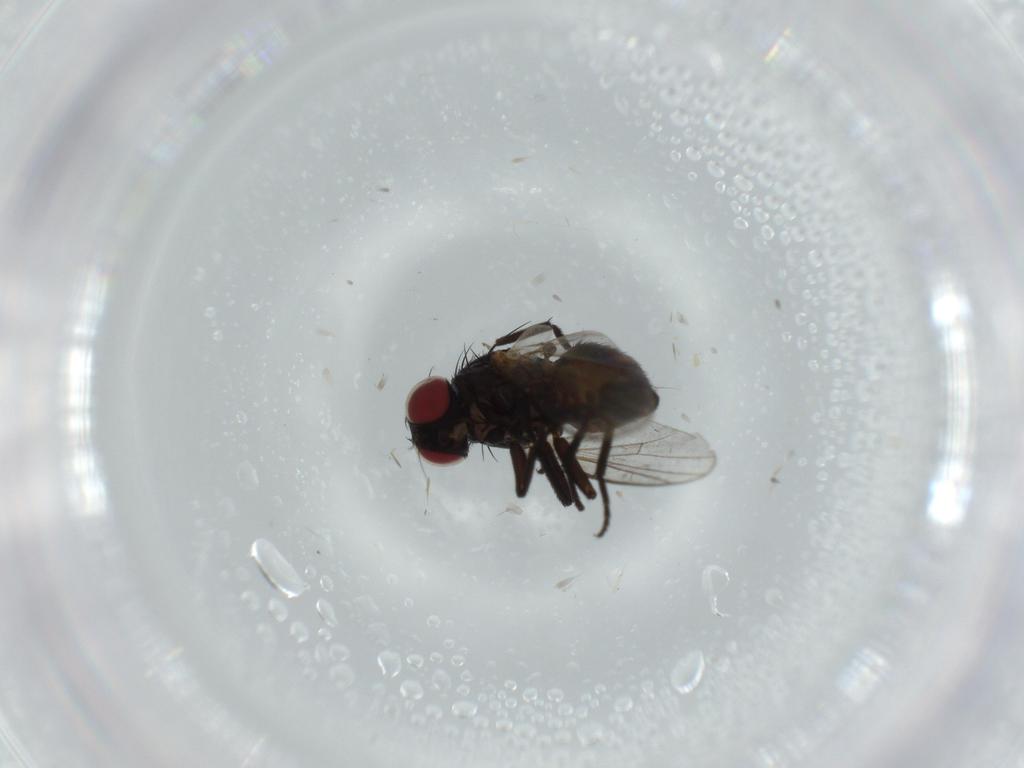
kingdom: Animalia
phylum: Arthropoda
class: Insecta
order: Diptera
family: Agromyzidae
